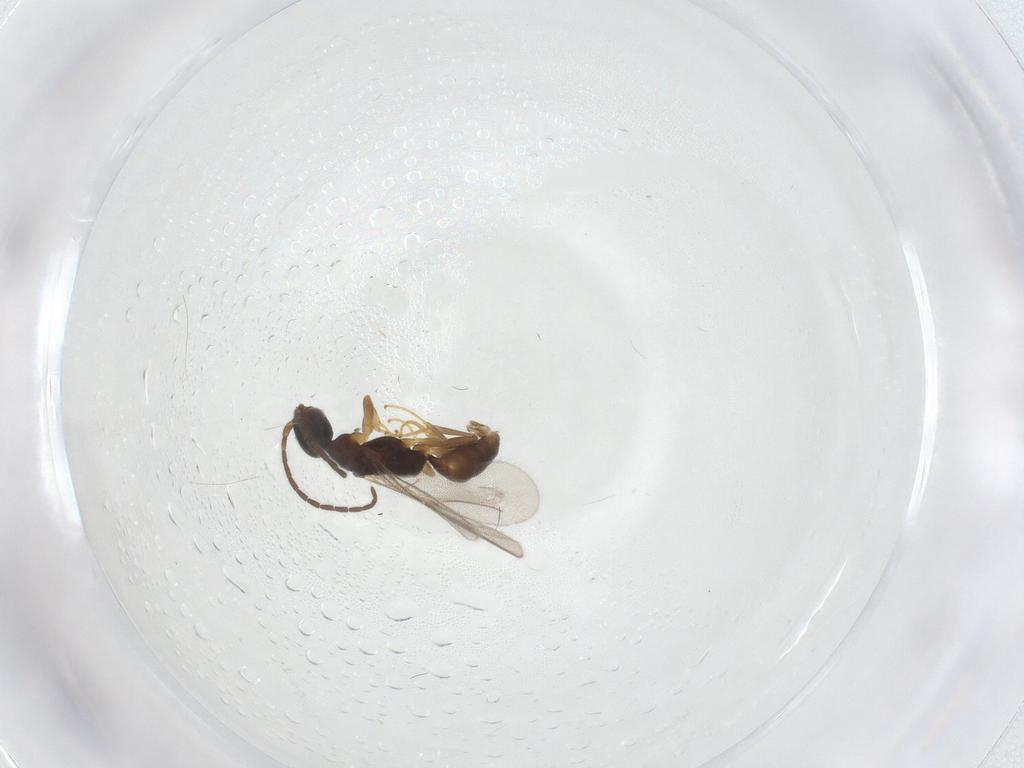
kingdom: Animalia
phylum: Arthropoda
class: Insecta
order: Hymenoptera
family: Bethylidae
